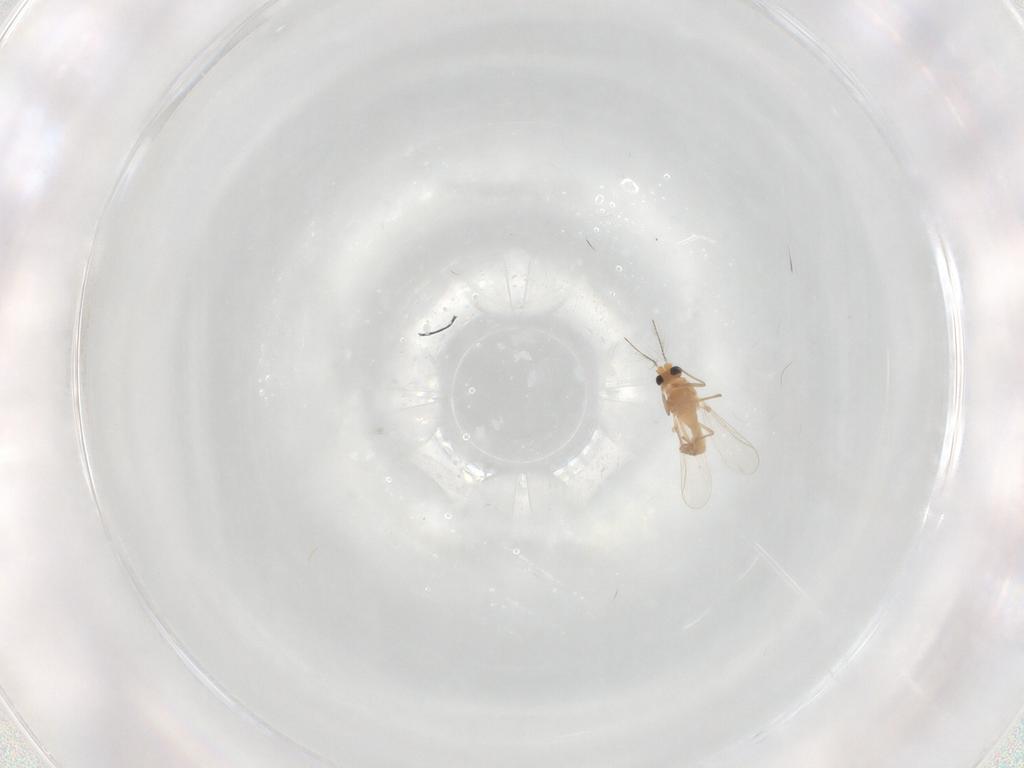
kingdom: Animalia
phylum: Arthropoda
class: Insecta
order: Diptera
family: Chironomidae
